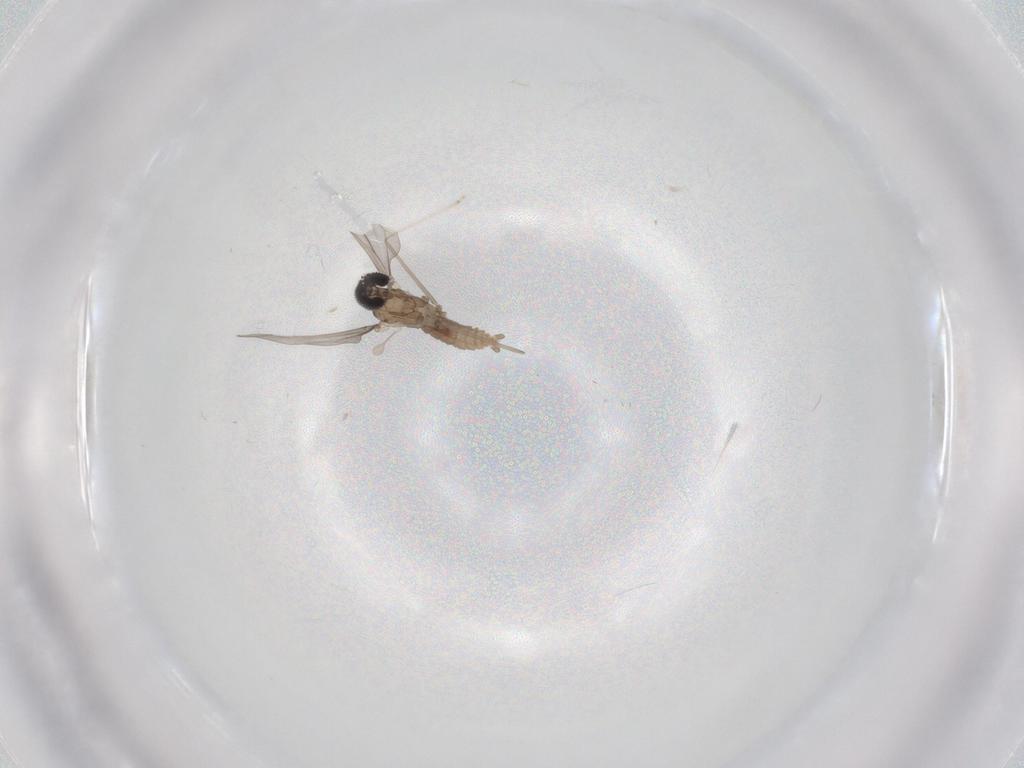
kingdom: Animalia
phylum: Arthropoda
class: Insecta
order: Diptera
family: Cecidomyiidae
